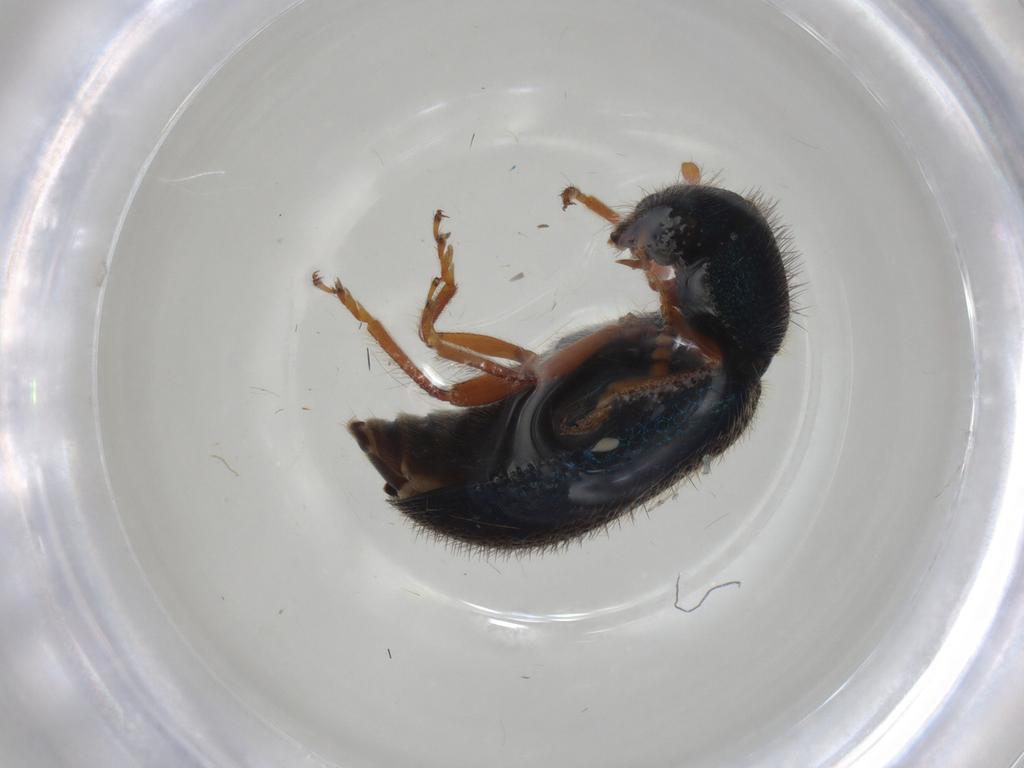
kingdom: Animalia
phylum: Arthropoda
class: Insecta
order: Coleoptera
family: Cleridae
